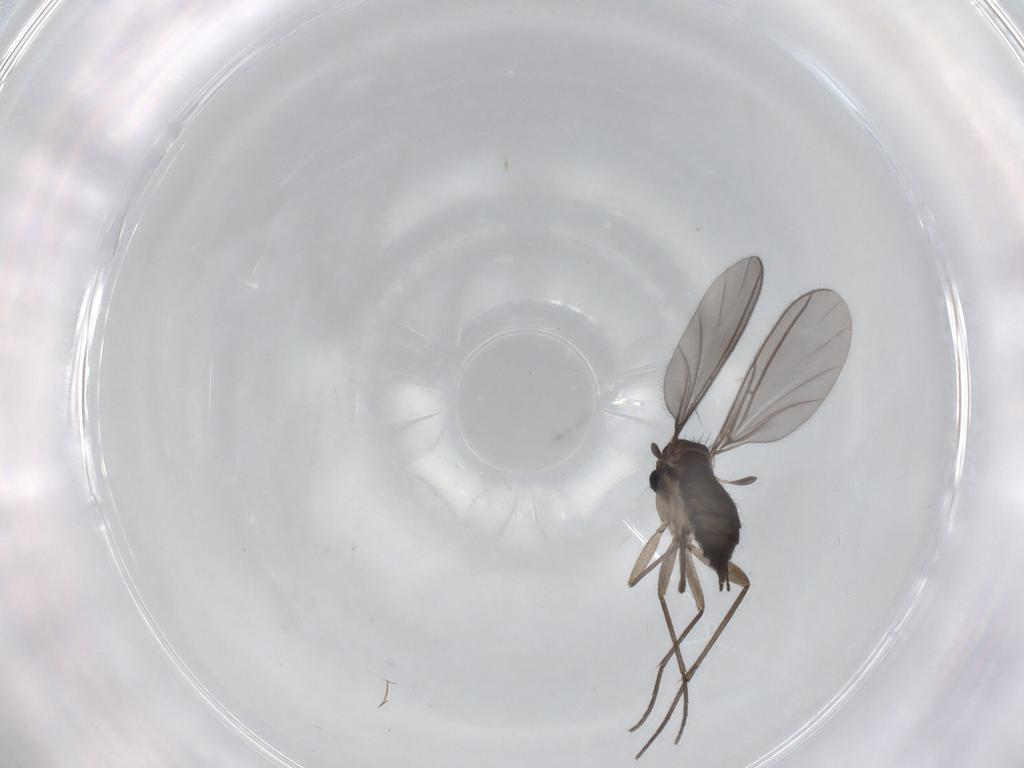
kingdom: Animalia
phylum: Arthropoda
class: Insecta
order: Diptera
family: Sciaridae
